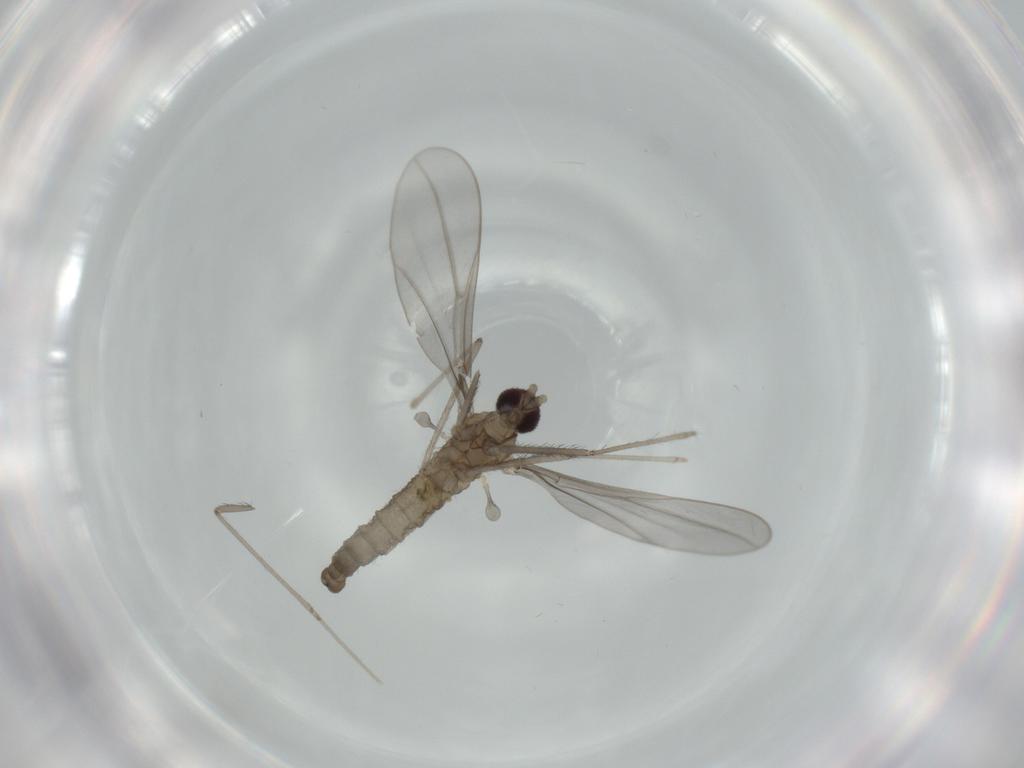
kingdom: Animalia
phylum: Arthropoda
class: Insecta
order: Diptera
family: Cecidomyiidae
